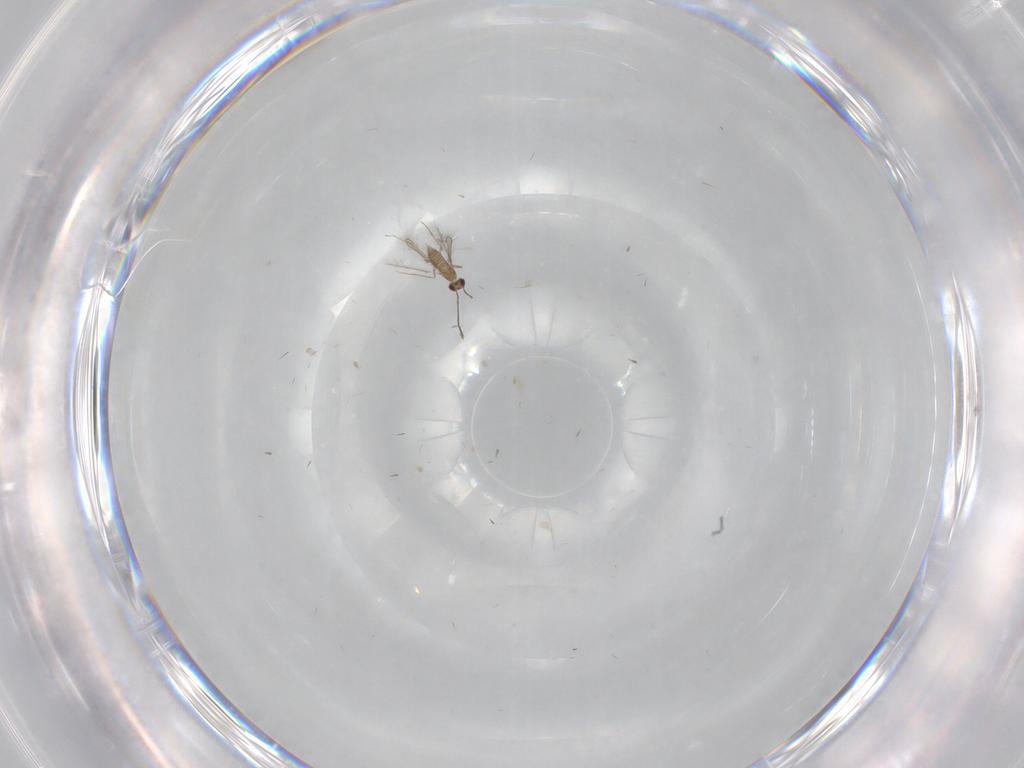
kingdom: Animalia
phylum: Arthropoda
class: Insecta
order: Hymenoptera
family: Mymaridae
